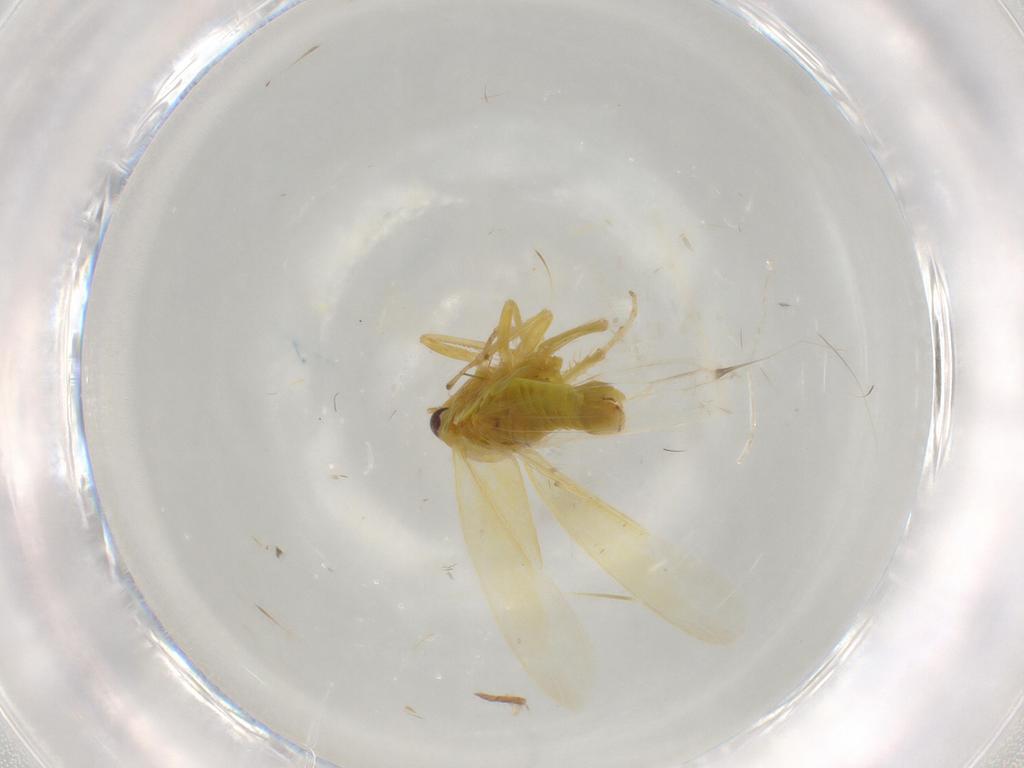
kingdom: Animalia
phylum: Arthropoda
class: Insecta
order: Hemiptera
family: Cicadellidae
